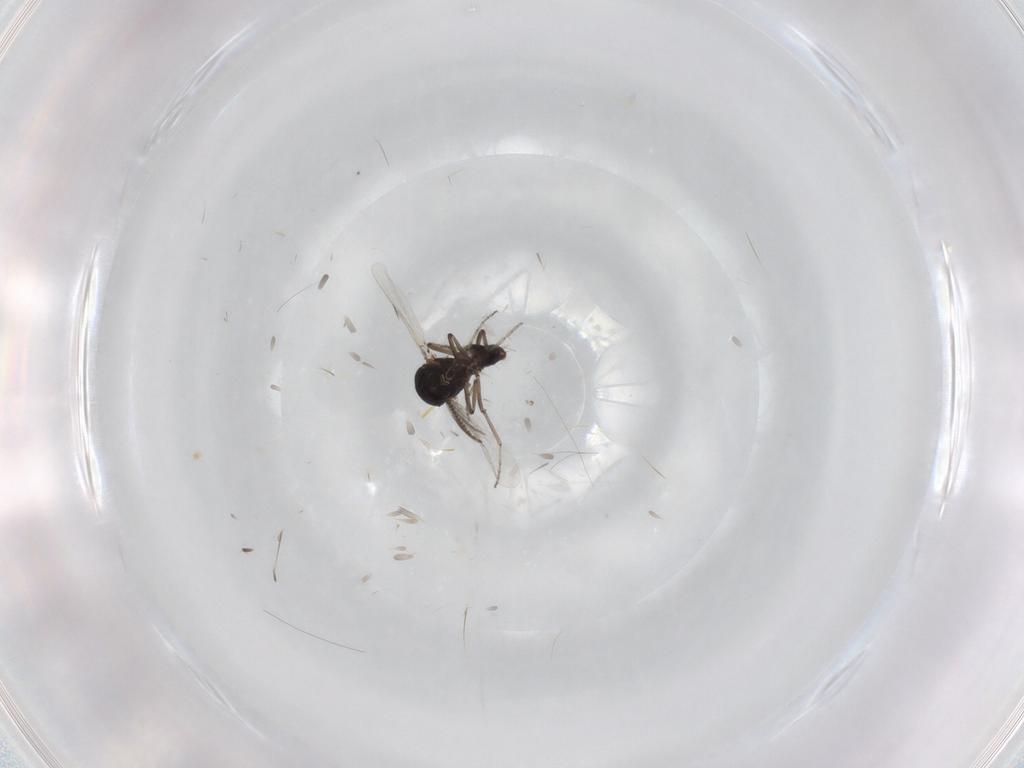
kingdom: Animalia
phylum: Arthropoda
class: Insecta
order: Diptera
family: Ceratopogonidae
